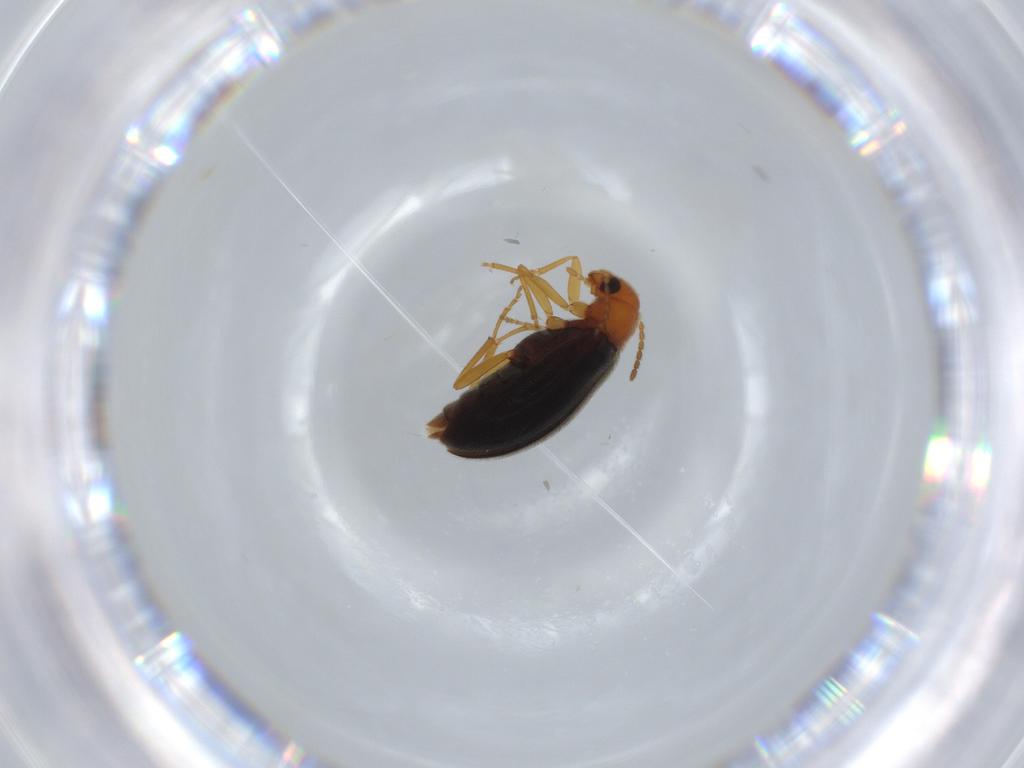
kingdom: Animalia
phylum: Arthropoda
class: Insecta
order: Coleoptera
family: Melandryidae
